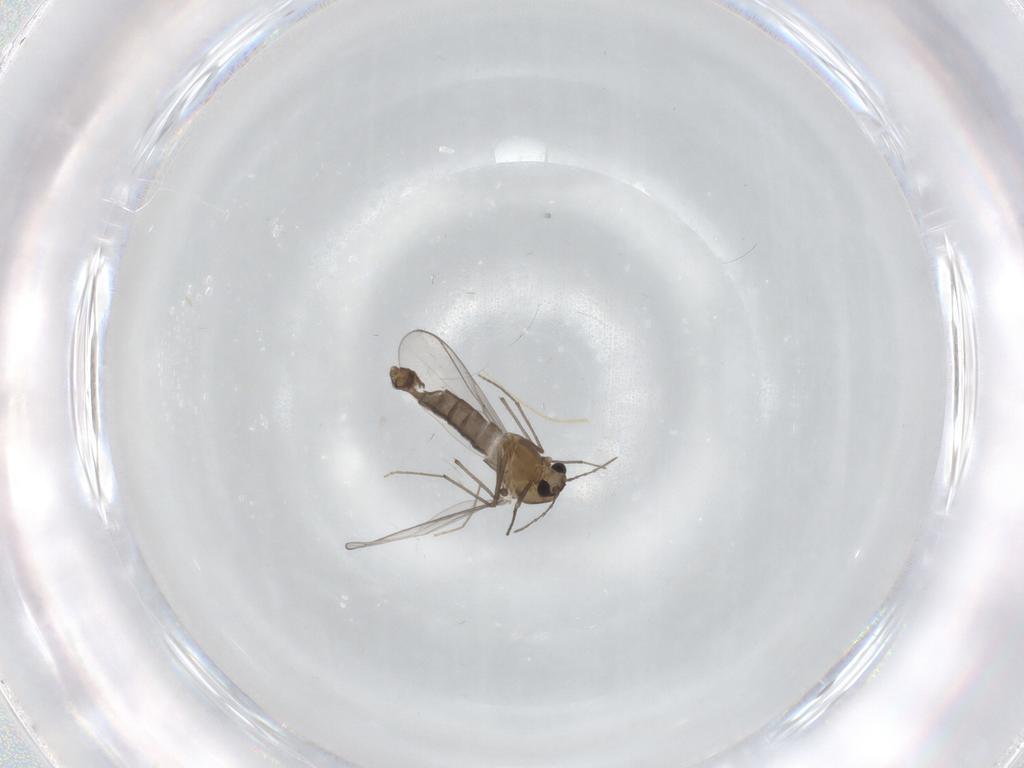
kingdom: Animalia
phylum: Arthropoda
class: Insecta
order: Diptera
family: Chironomidae
